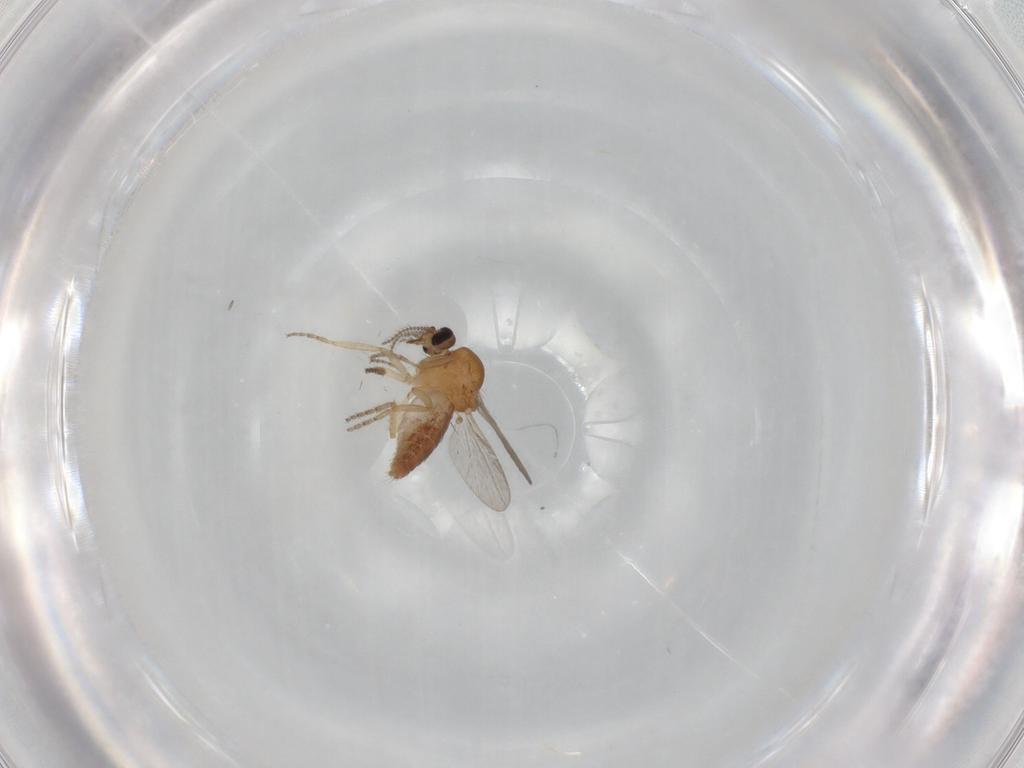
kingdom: Animalia
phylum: Arthropoda
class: Insecta
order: Diptera
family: Ceratopogonidae
